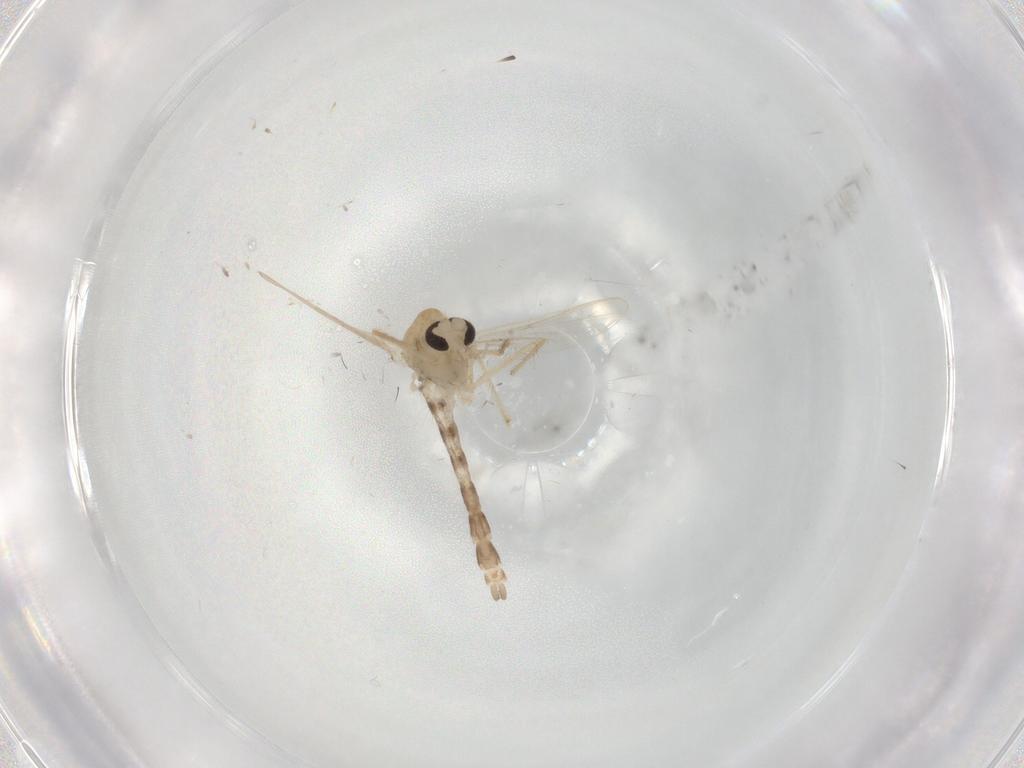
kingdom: Animalia
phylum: Arthropoda
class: Insecta
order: Diptera
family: Chironomidae
